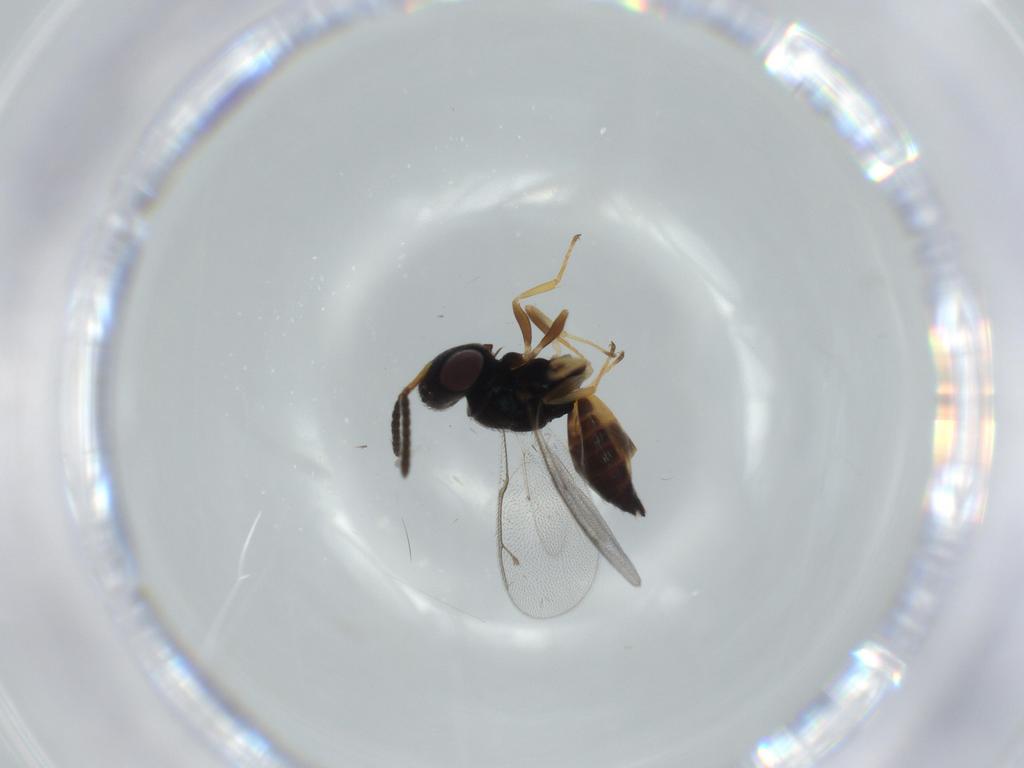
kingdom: Animalia
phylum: Arthropoda
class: Insecta
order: Hymenoptera
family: Pteromalidae
